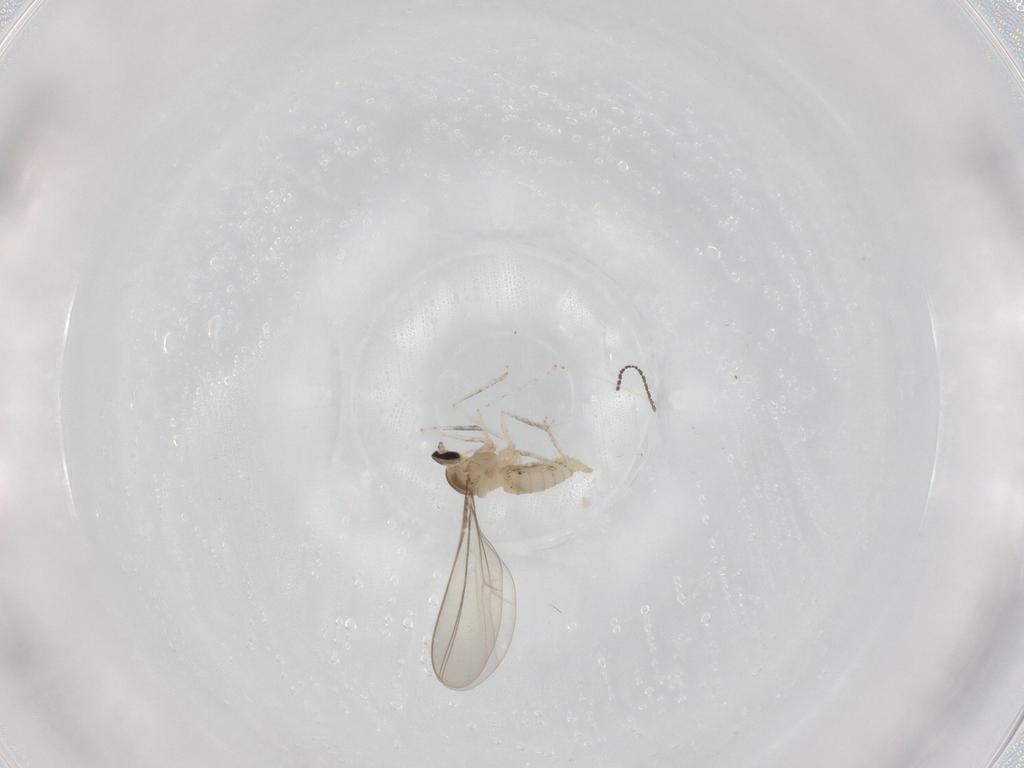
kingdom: Animalia
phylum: Arthropoda
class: Insecta
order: Diptera
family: Cecidomyiidae
